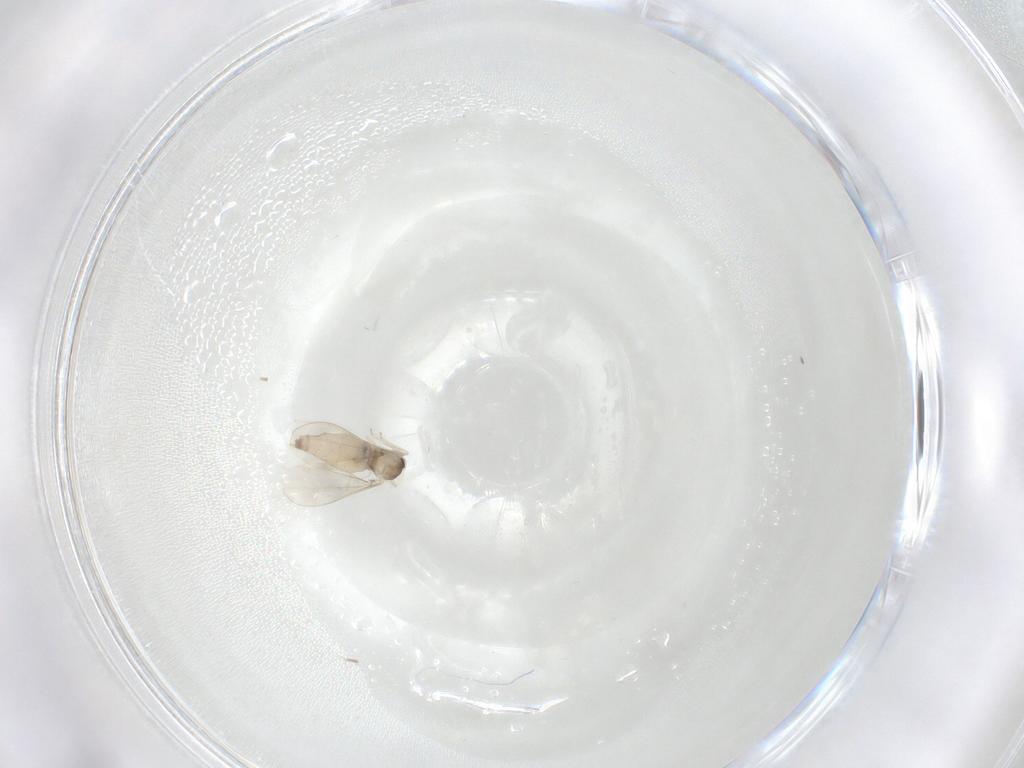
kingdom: Animalia
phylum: Arthropoda
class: Insecta
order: Diptera
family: Cecidomyiidae
